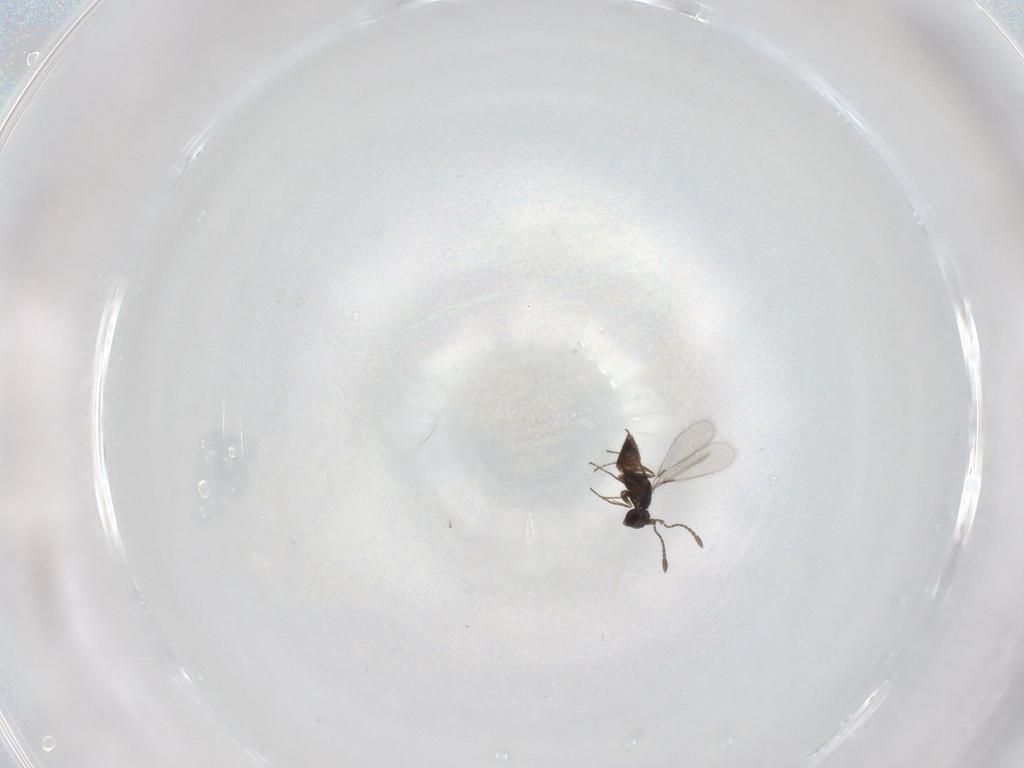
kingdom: Animalia
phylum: Arthropoda
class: Insecta
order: Hymenoptera
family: Mymaridae
